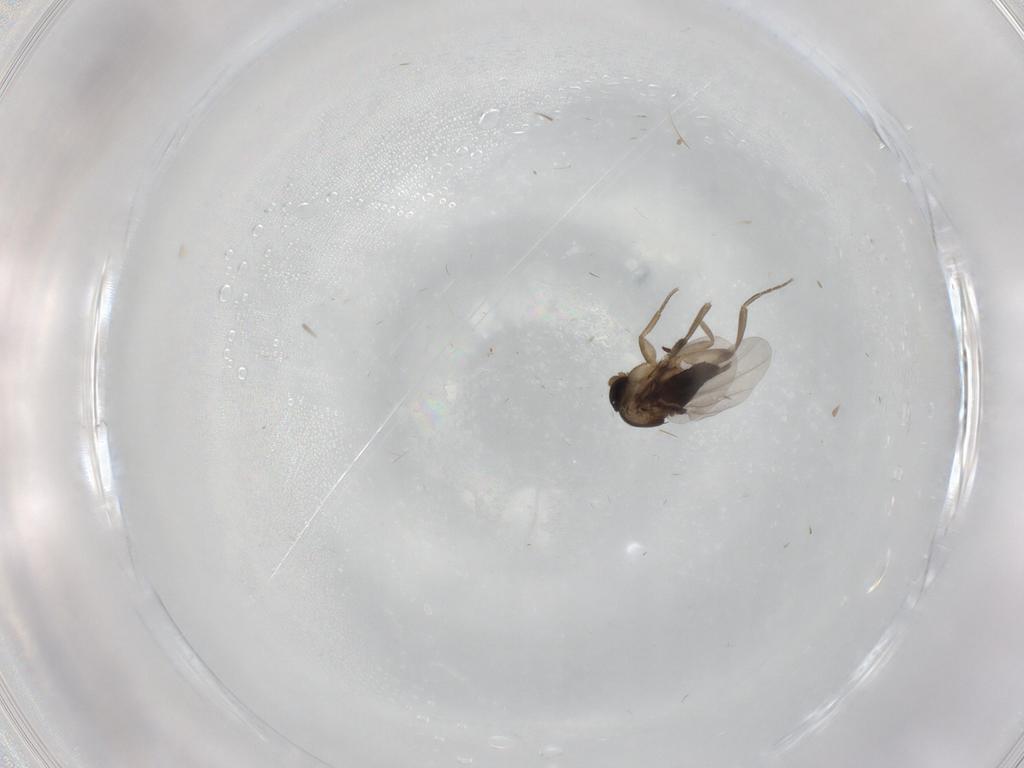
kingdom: Animalia
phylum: Arthropoda
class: Insecta
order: Diptera
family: Phoridae
